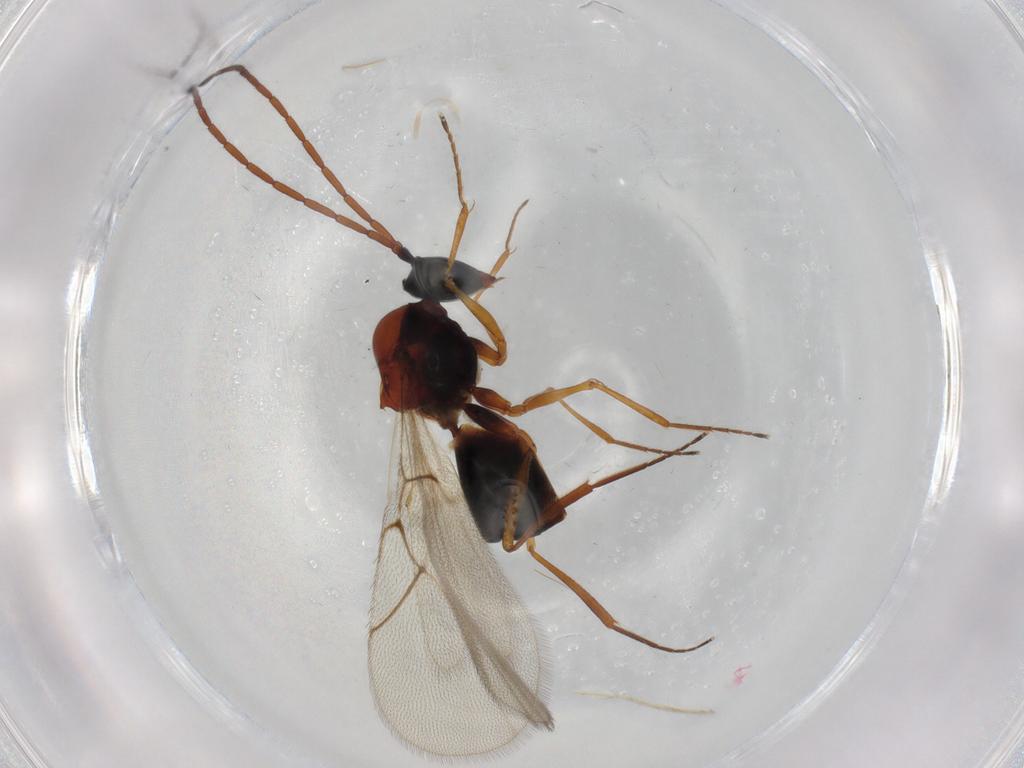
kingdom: Animalia
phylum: Arthropoda
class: Insecta
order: Hymenoptera
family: Figitidae
